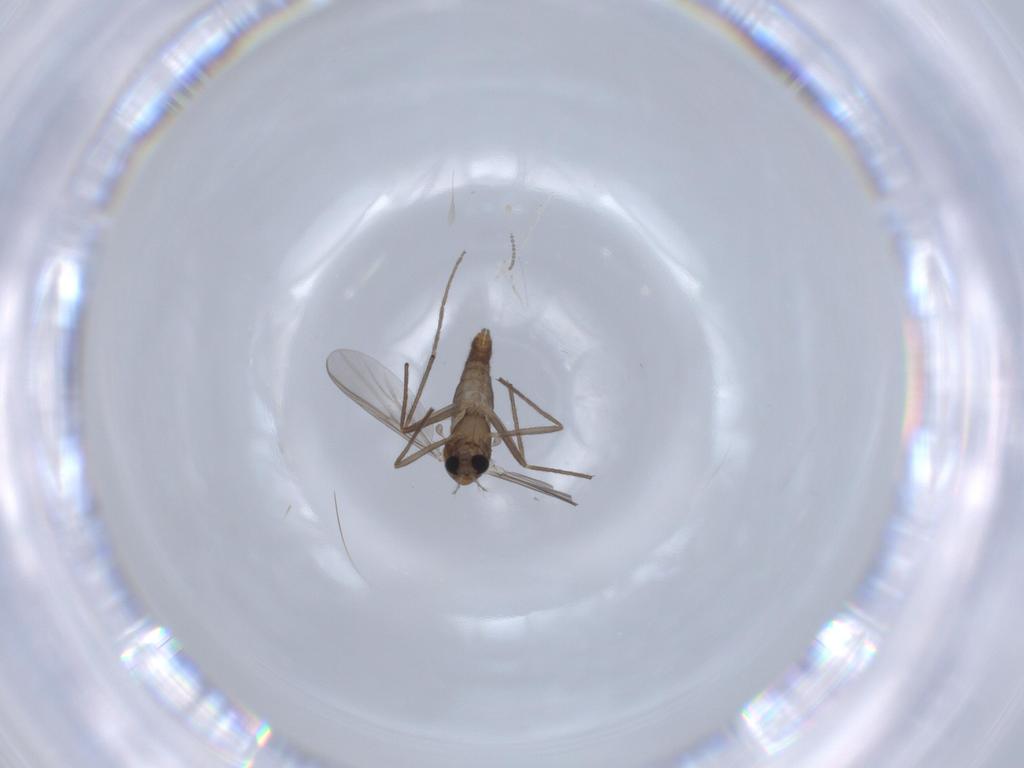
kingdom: Animalia
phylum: Arthropoda
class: Insecta
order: Diptera
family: Chironomidae
